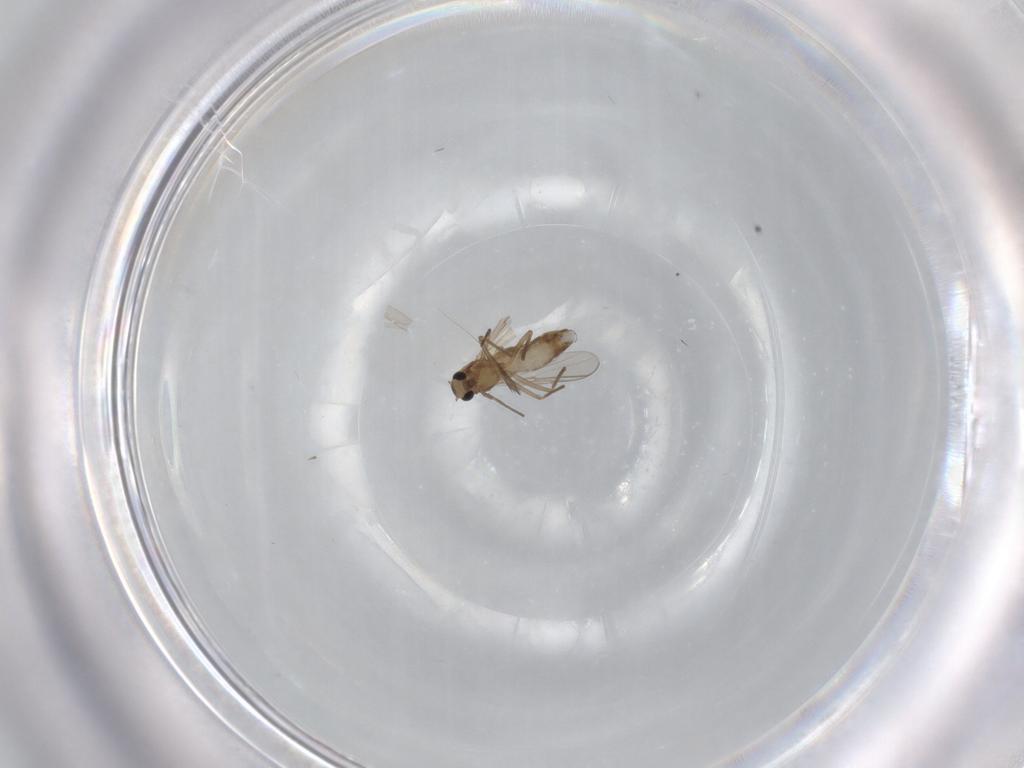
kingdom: Animalia
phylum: Arthropoda
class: Insecta
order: Diptera
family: Chironomidae
